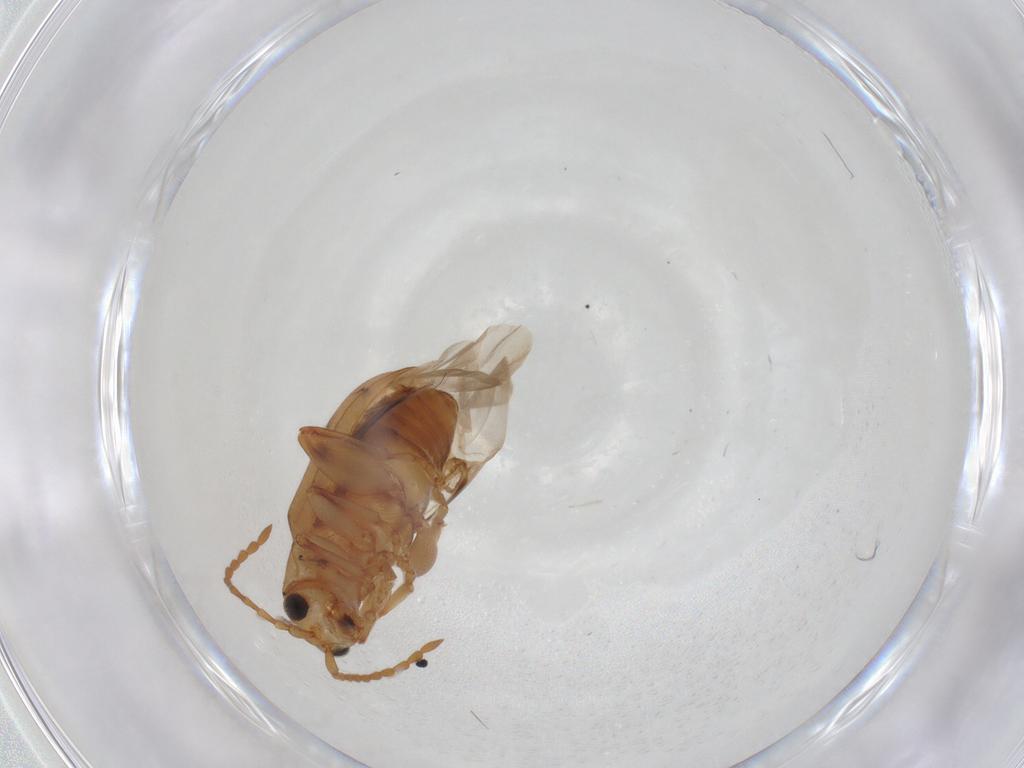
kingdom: Animalia
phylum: Arthropoda
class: Insecta
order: Coleoptera
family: Chrysomelidae
